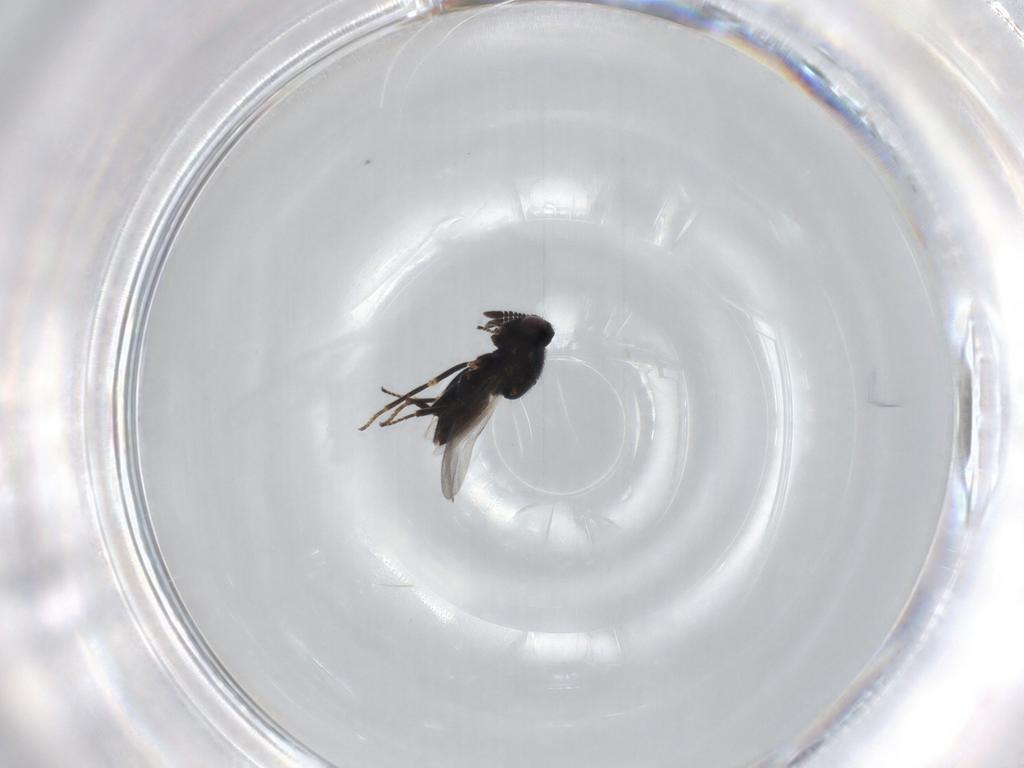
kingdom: Animalia
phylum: Arthropoda
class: Insecta
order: Hymenoptera
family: Encyrtidae
